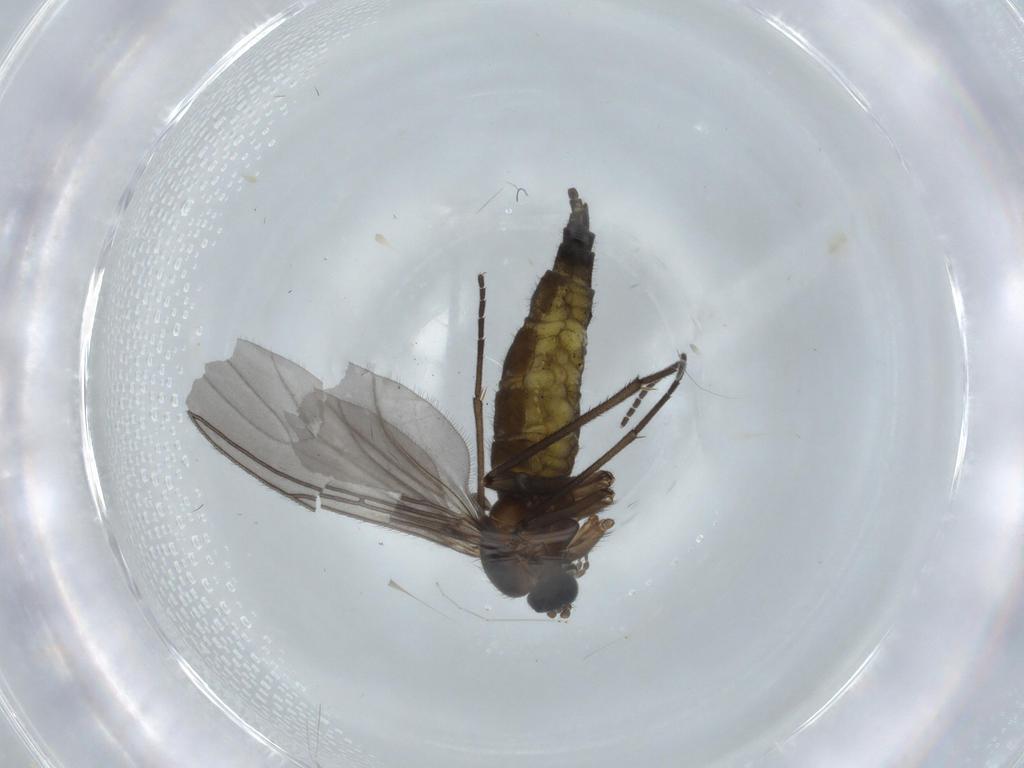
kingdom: Animalia
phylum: Arthropoda
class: Insecta
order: Diptera
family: Sciaridae
